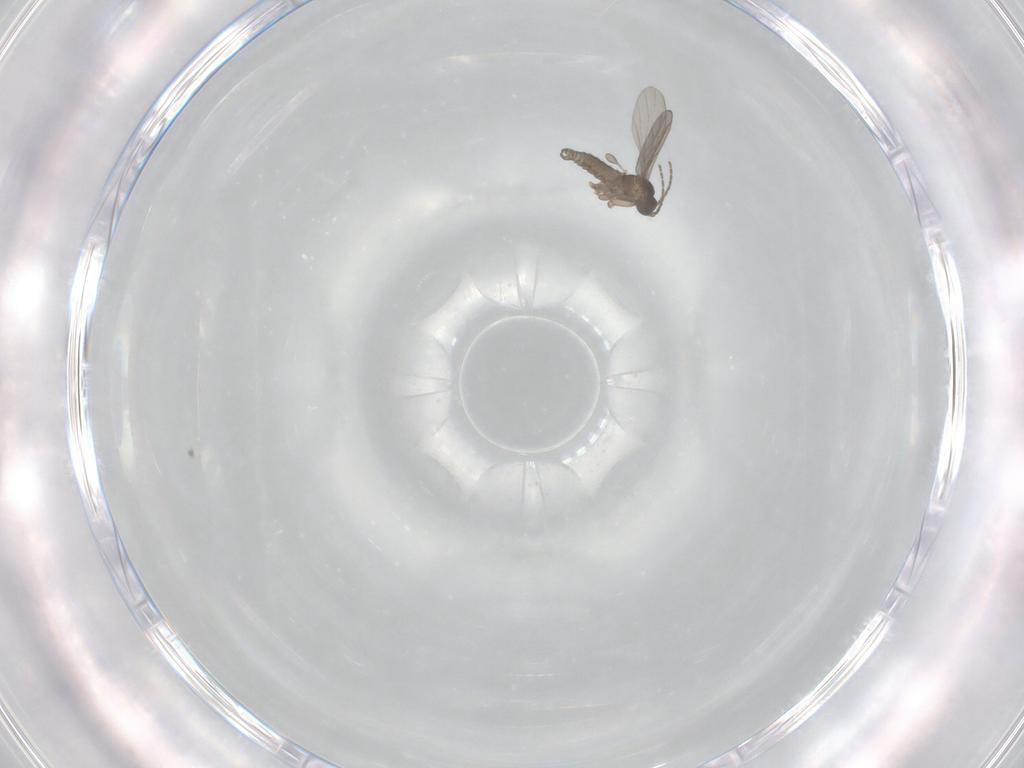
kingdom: Animalia
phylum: Arthropoda
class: Insecta
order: Diptera
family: Sciaridae
